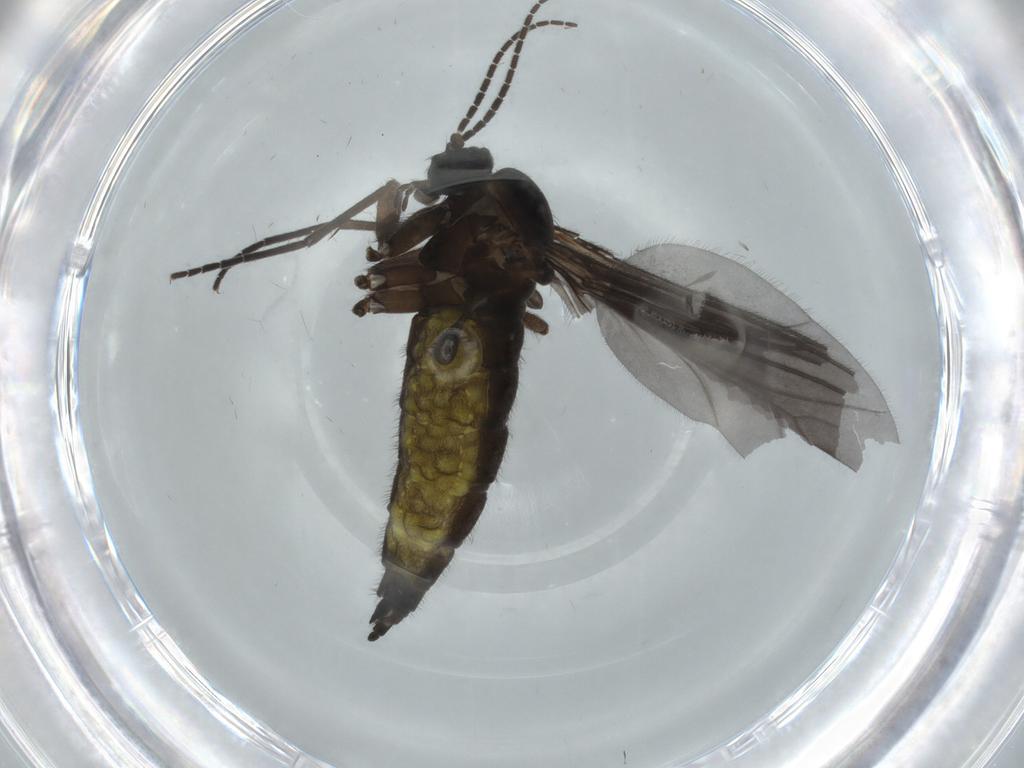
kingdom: Animalia
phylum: Arthropoda
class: Insecta
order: Diptera
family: Sciaridae
